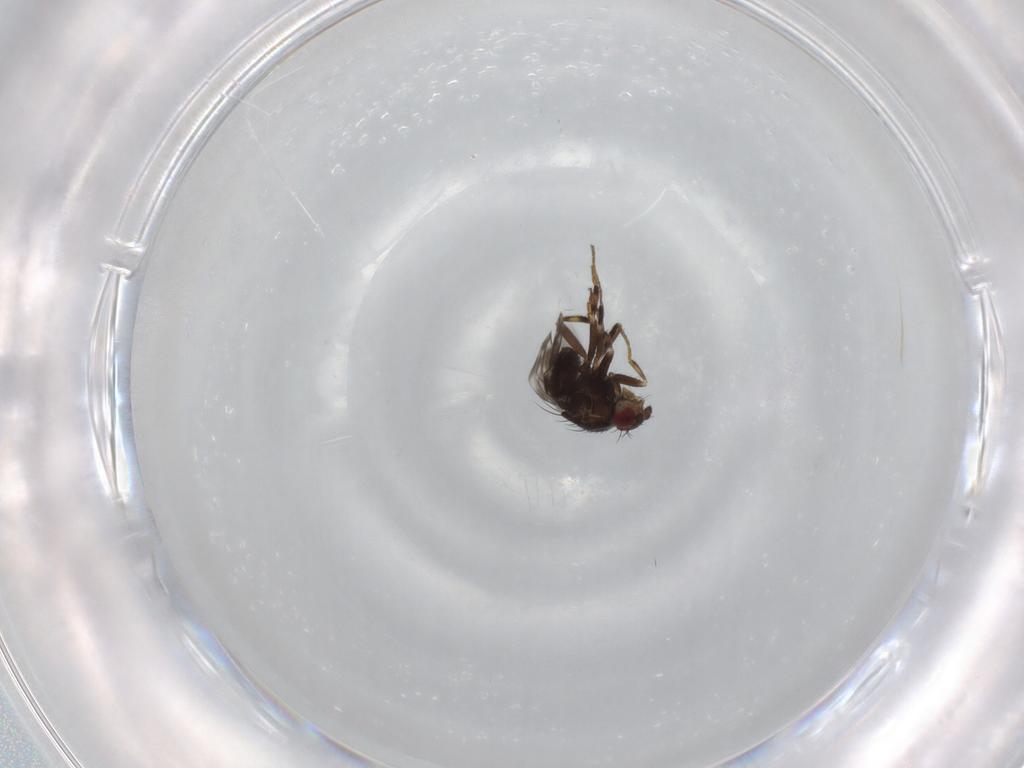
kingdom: Animalia
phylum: Arthropoda
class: Insecta
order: Diptera
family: Sphaeroceridae
